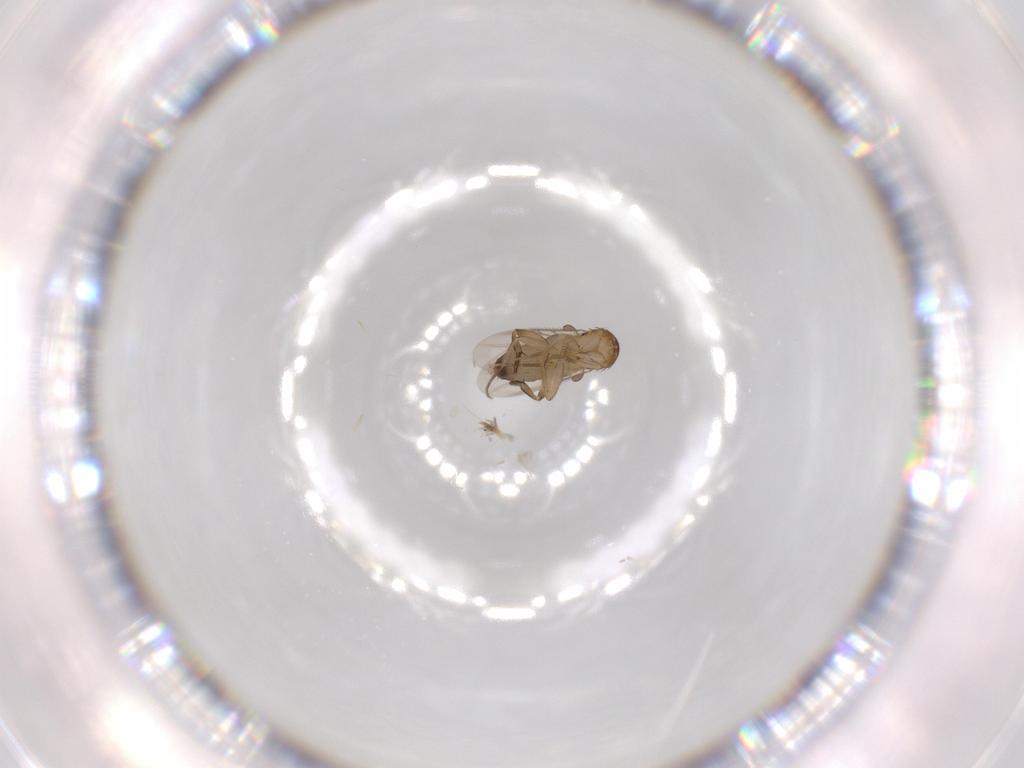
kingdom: Animalia
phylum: Arthropoda
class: Insecta
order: Diptera
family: Phoridae
